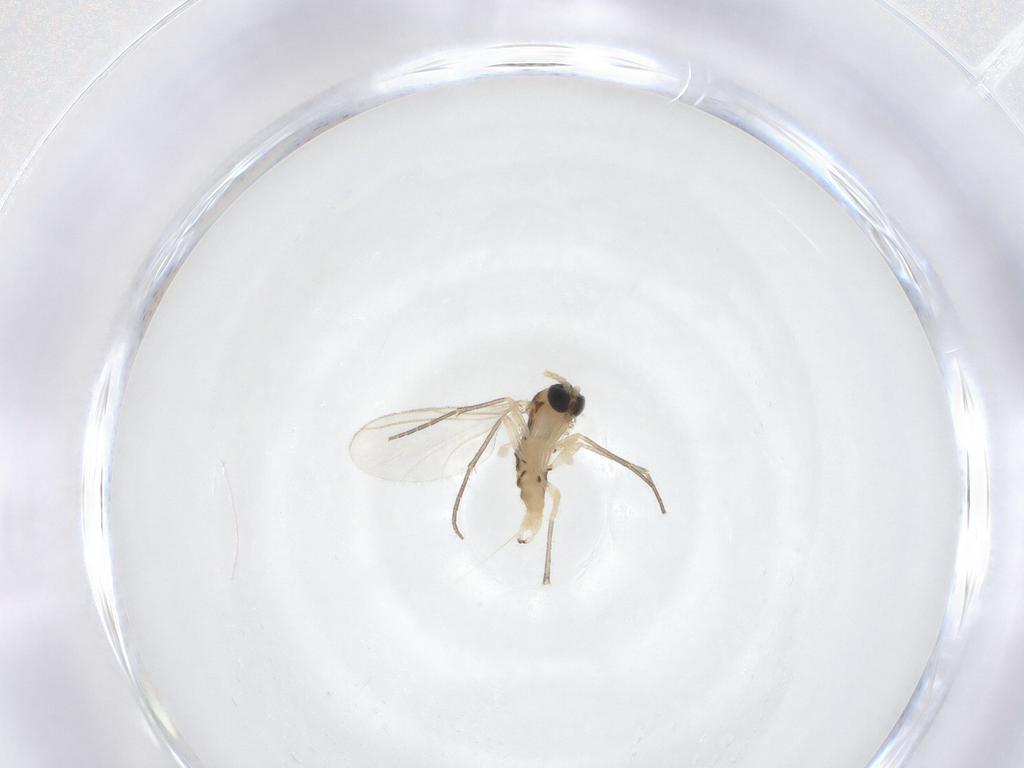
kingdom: Animalia
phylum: Arthropoda
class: Insecta
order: Diptera
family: Sciaridae
